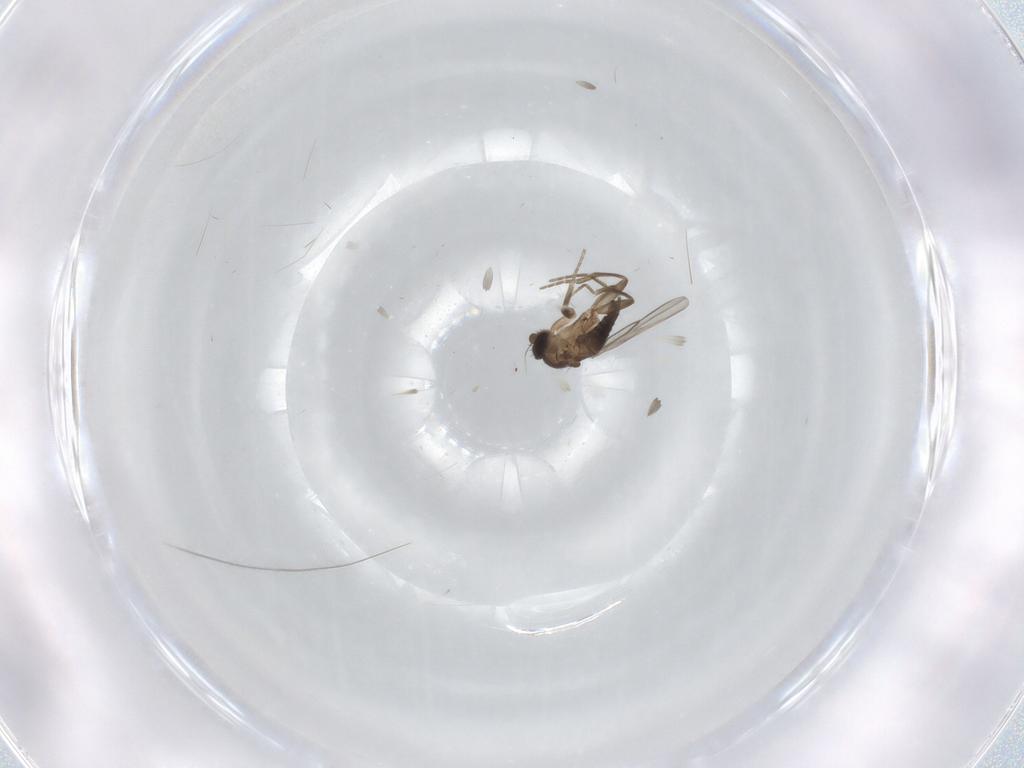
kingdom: Animalia
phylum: Arthropoda
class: Insecta
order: Diptera
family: Phoridae
